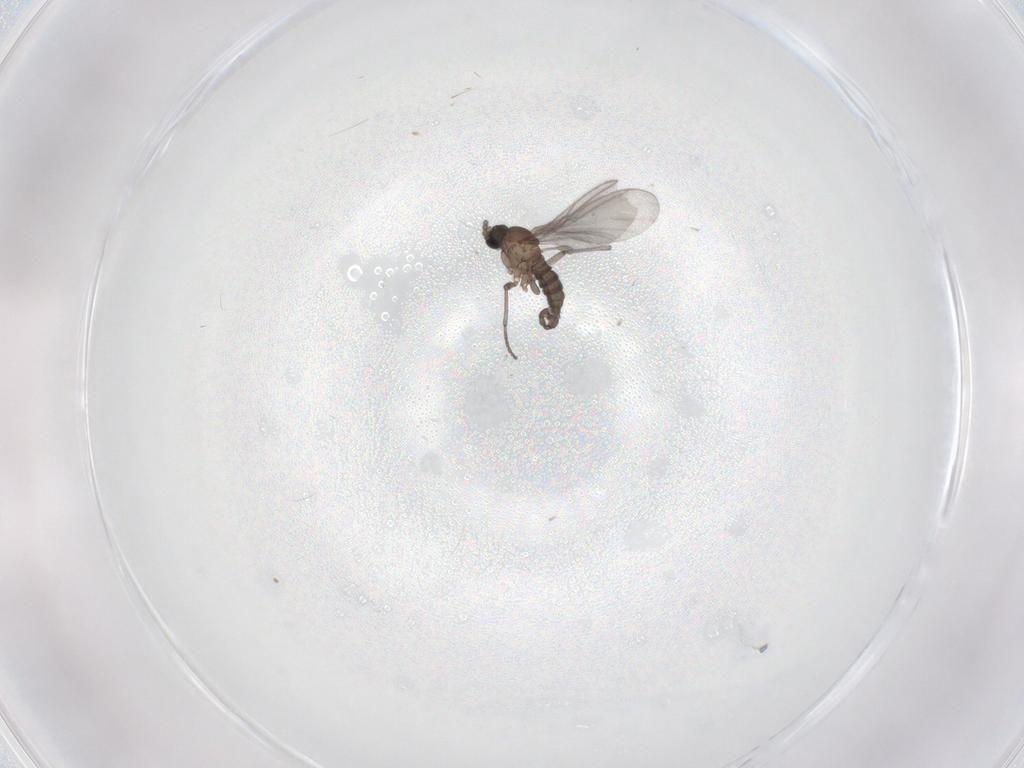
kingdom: Animalia
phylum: Arthropoda
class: Insecta
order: Diptera
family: Sciaridae
